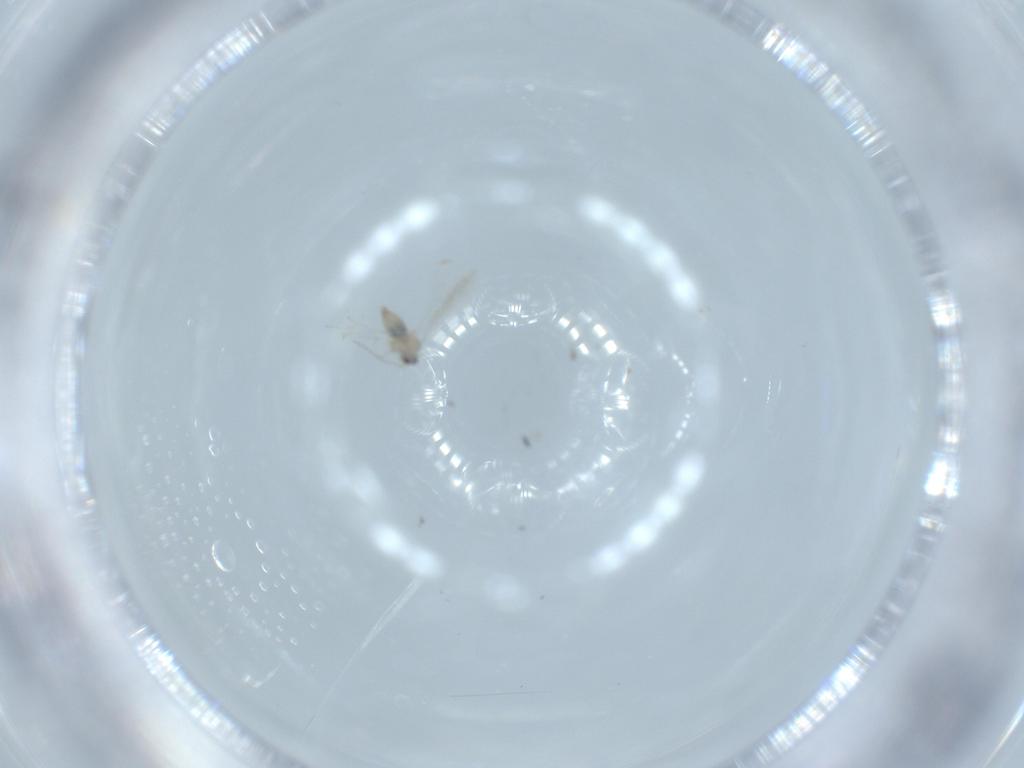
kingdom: Animalia
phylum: Arthropoda
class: Insecta
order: Diptera
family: Cecidomyiidae
